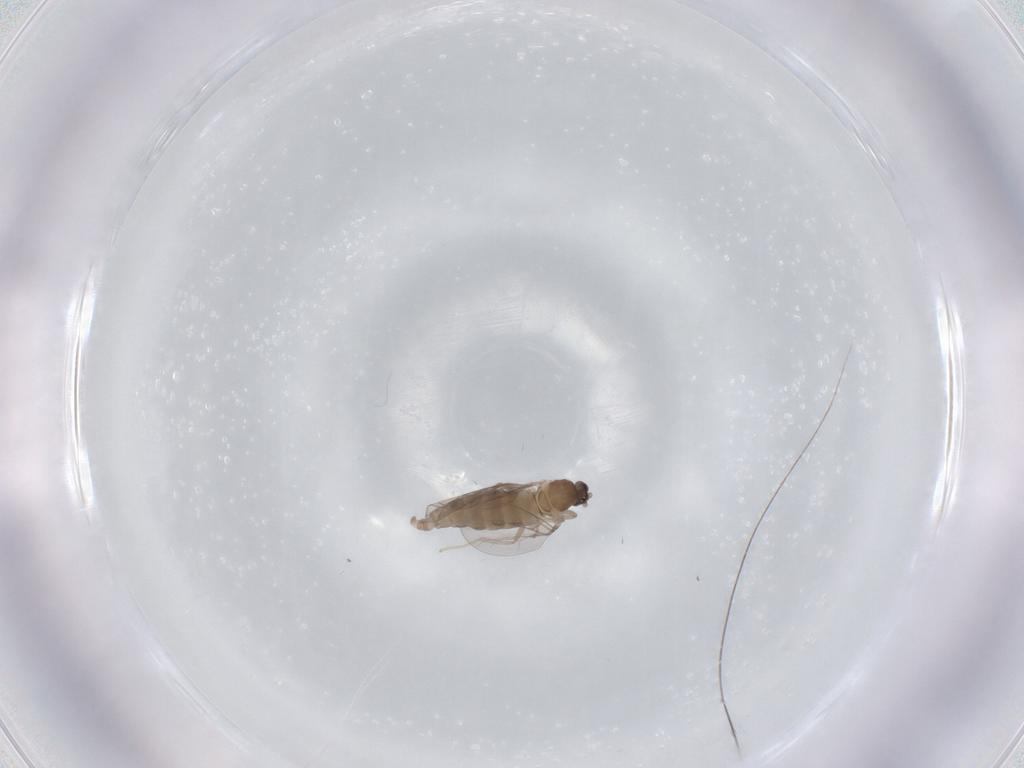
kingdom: Animalia
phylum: Arthropoda
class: Insecta
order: Diptera
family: Cecidomyiidae
